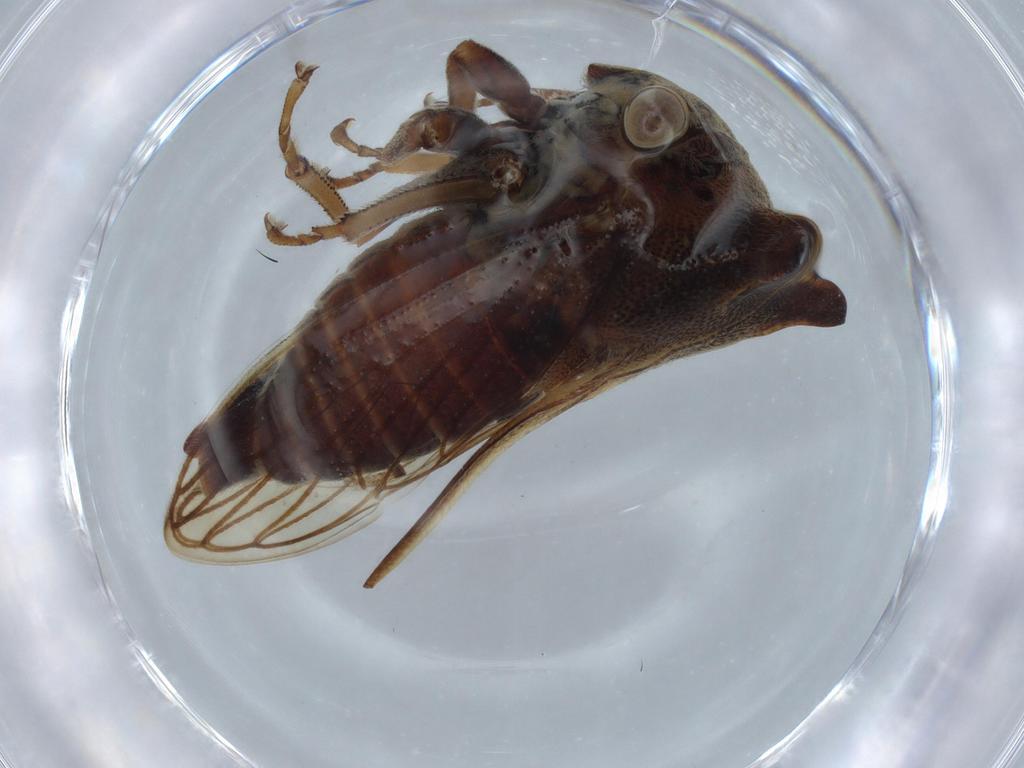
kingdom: Animalia
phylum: Arthropoda
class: Insecta
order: Hemiptera
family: Membracidae
